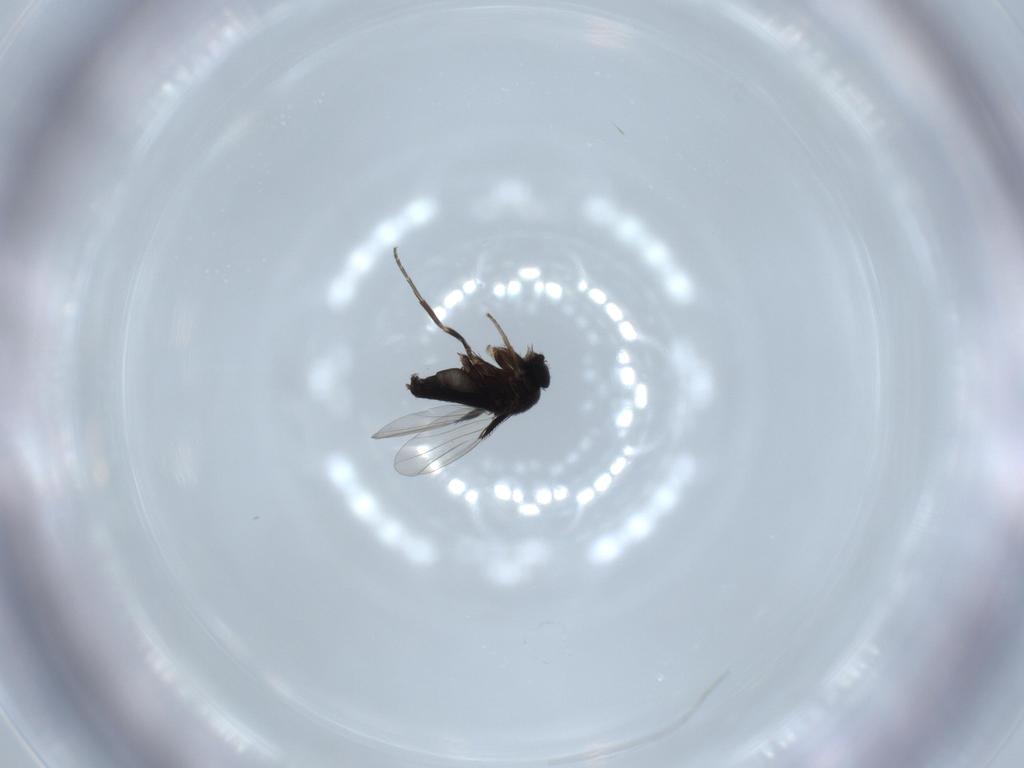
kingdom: Animalia
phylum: Arthropoda
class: Insecta
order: Diptera
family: Phoridae
